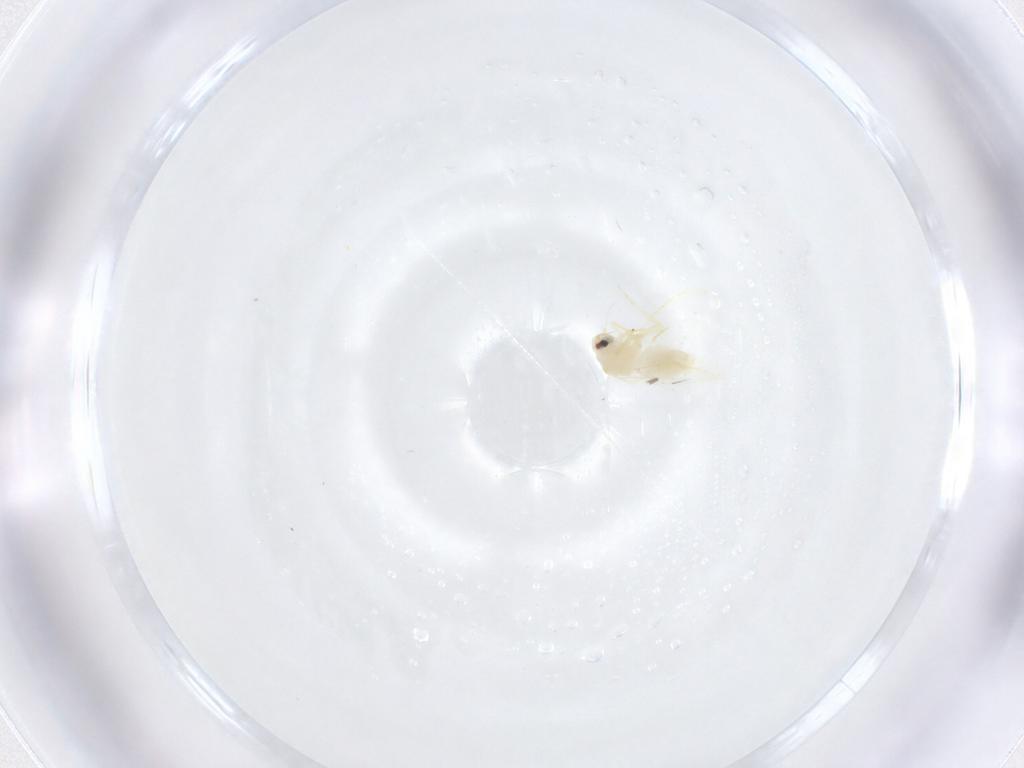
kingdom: Animalia
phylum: Arthropoda
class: Insecta
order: Hemiptera
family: Aleyrodidae
